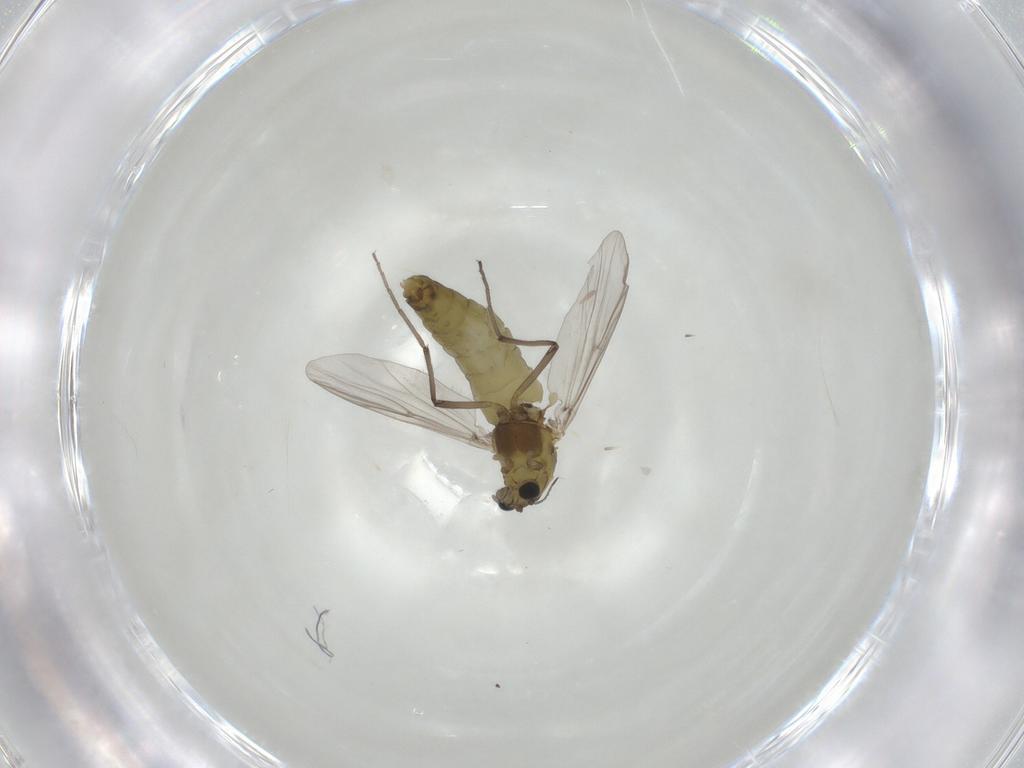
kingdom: Animalia
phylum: Arthropoda
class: Insecta
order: Diptera
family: Chironomidae
